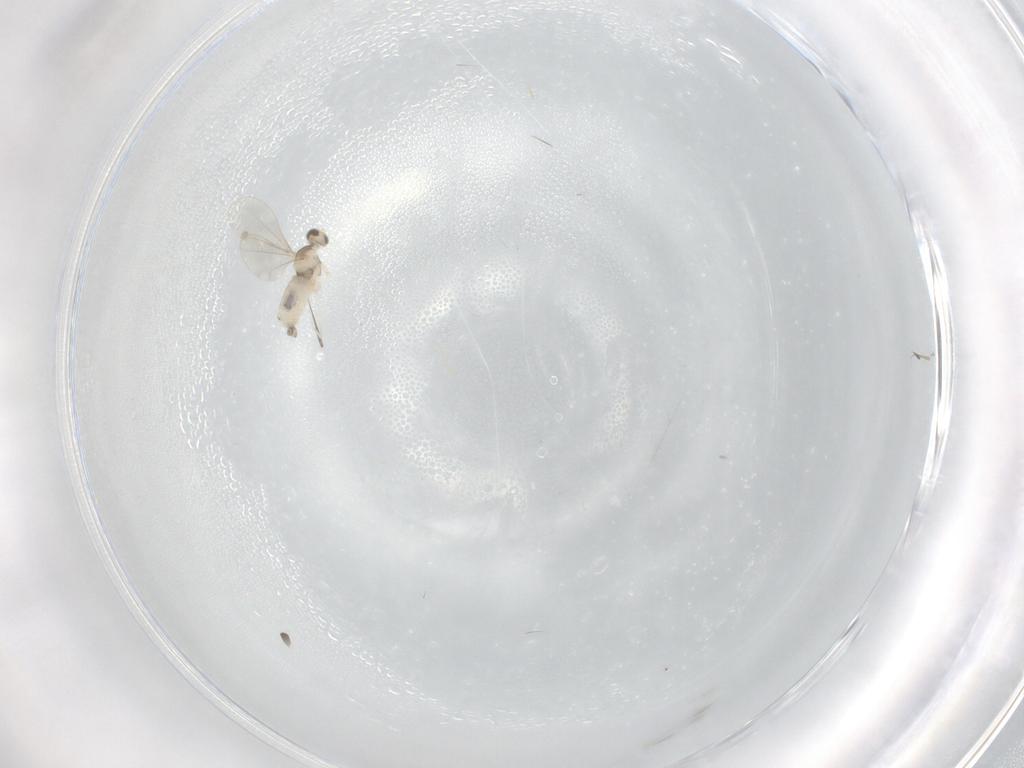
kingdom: Animalia
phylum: Arthropoda
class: Insecta
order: Diptera
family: Cecidomyiidae
